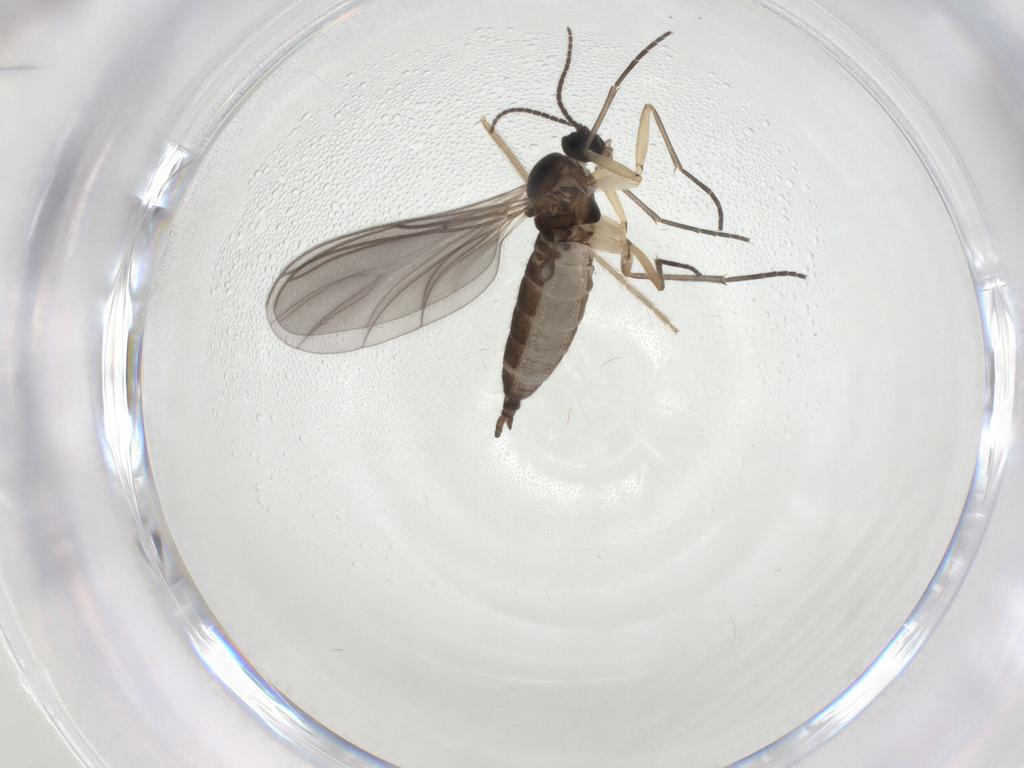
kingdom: Animalia
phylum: Arthropoda
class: Insecta
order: Diptera
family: Sciaridae
